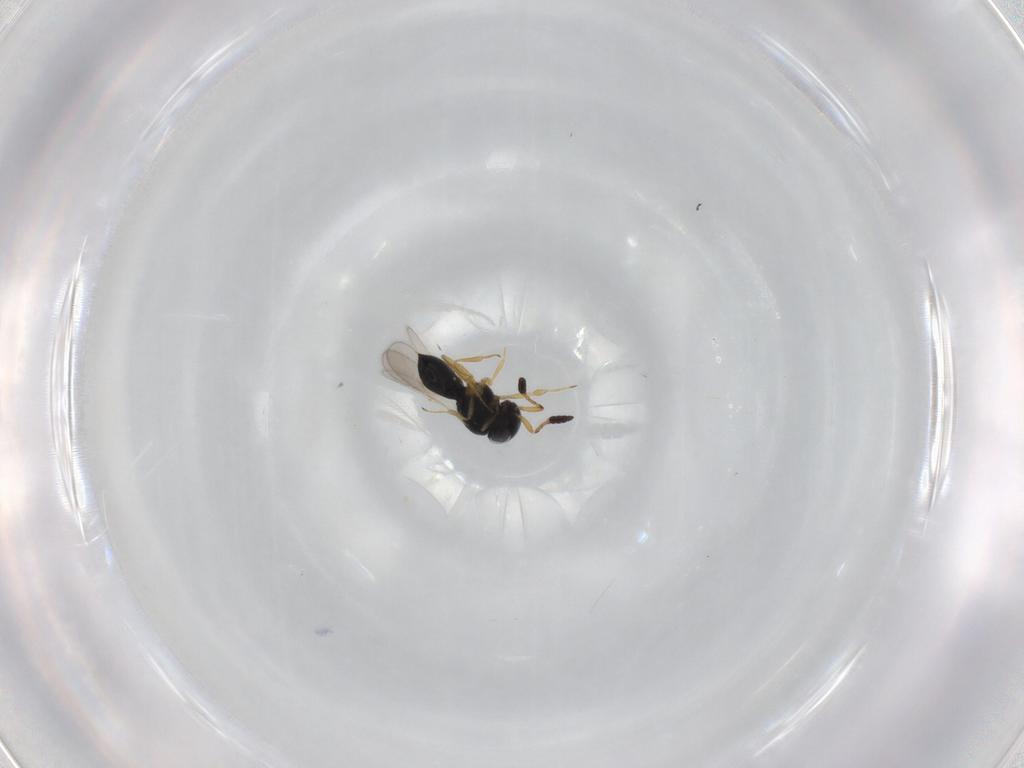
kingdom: Animalia
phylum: Arthropoda
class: Insecta
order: Hymenoptera
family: Scelionidae
